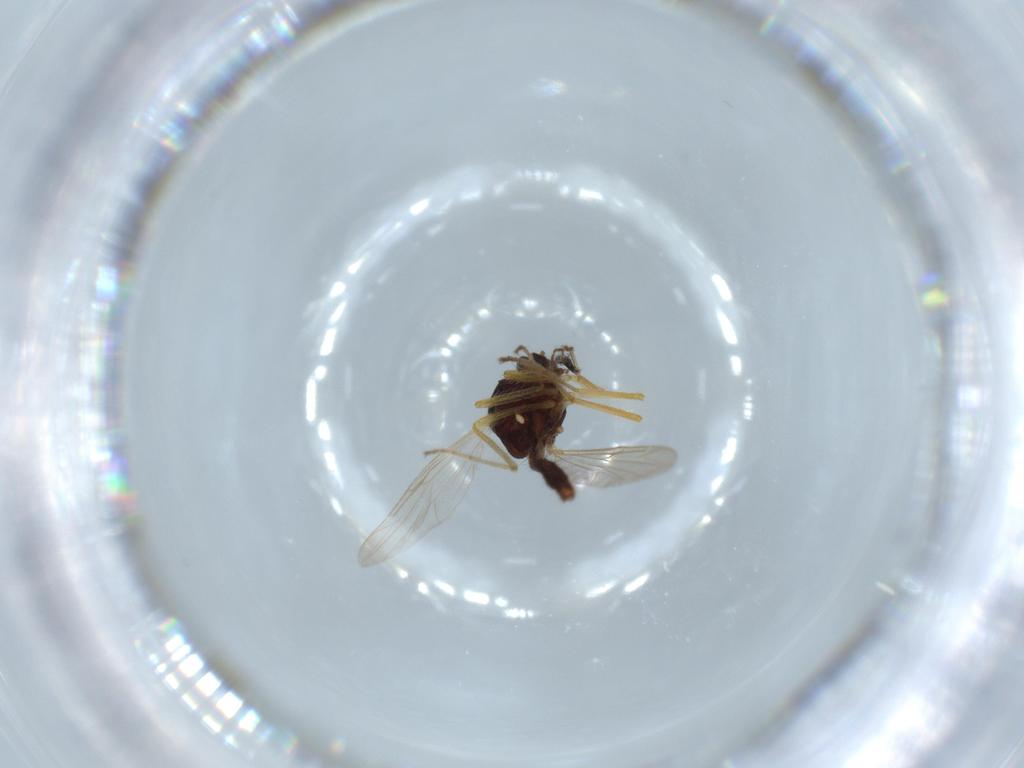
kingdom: Animalia
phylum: Arthropoda
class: Insecta
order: Diptera
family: Ceratopogonidae
